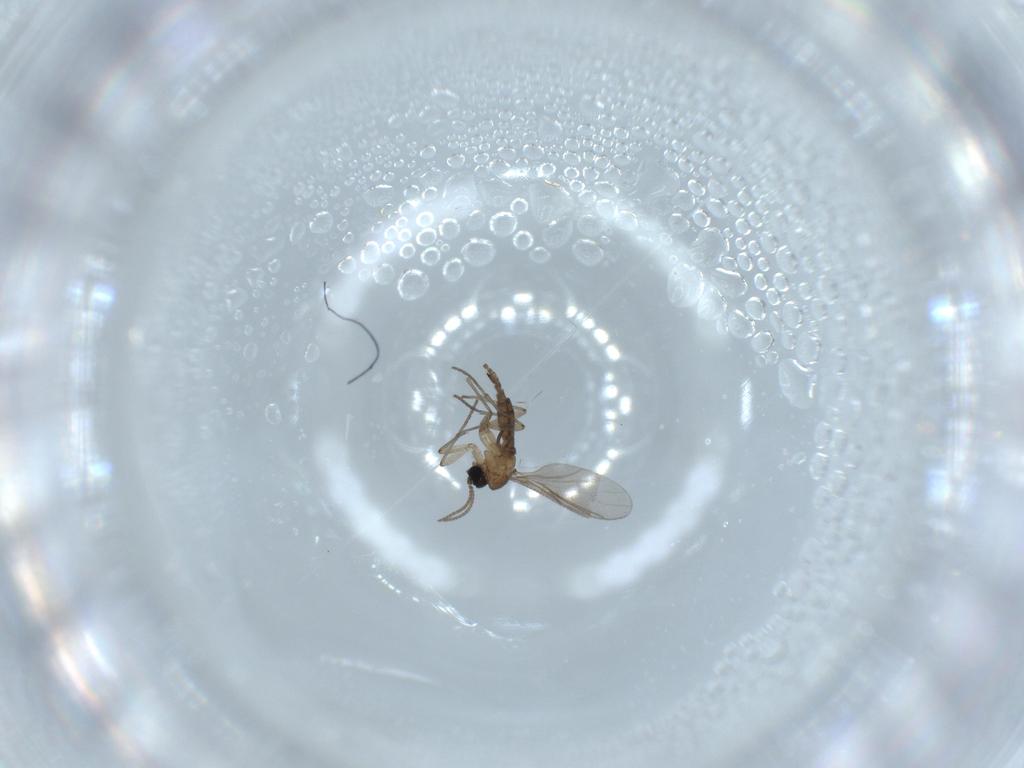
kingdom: Animalia
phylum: Arthropoda
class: Insecta
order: Diptera
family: Sciaridae
